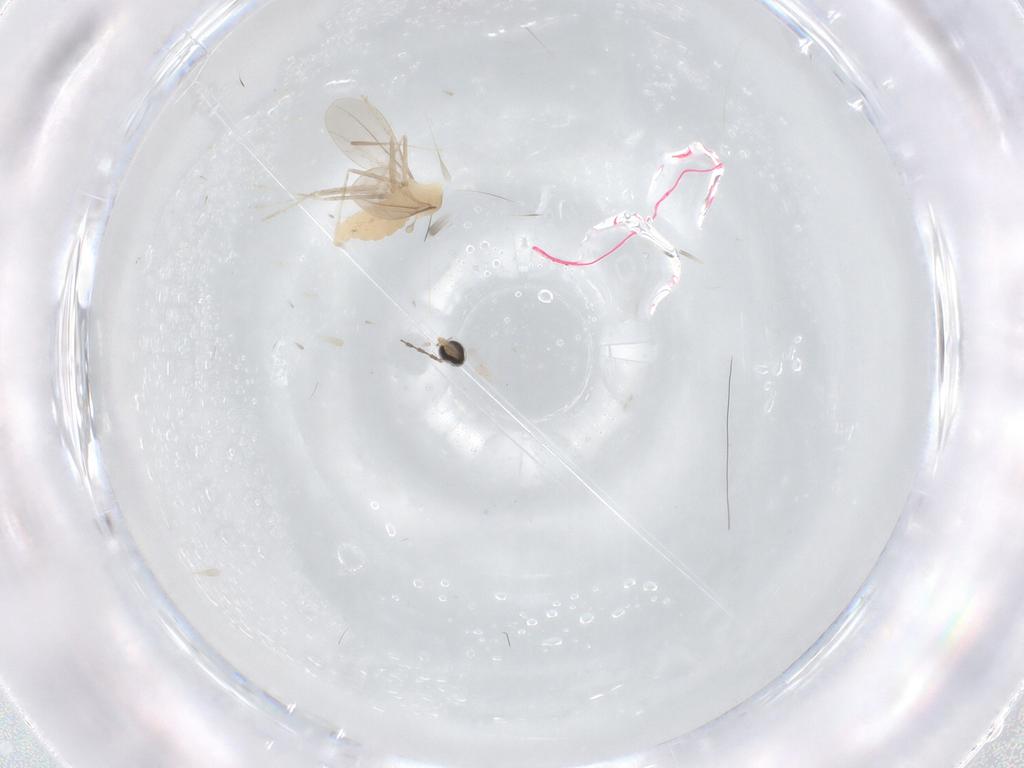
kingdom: Animalia
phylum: Arthropoda
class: Insecta
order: Diptera
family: Cecidomyiidae
